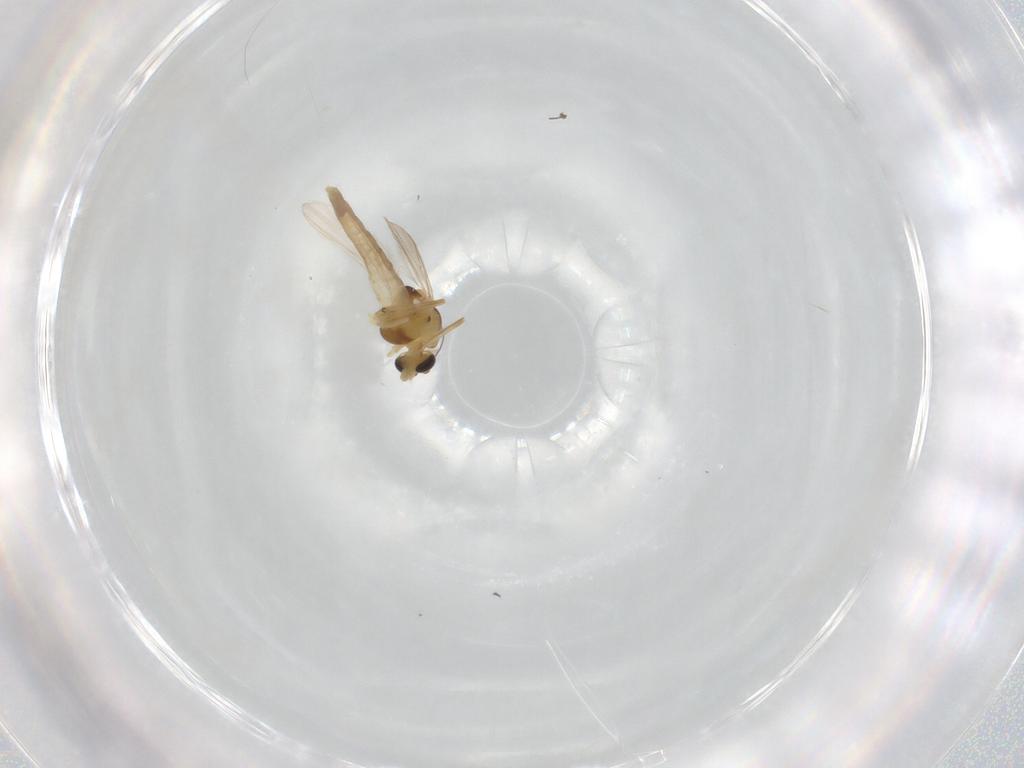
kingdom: Animalia
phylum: Arthropoda
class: Insecta
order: Diptera
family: Chironomidae
